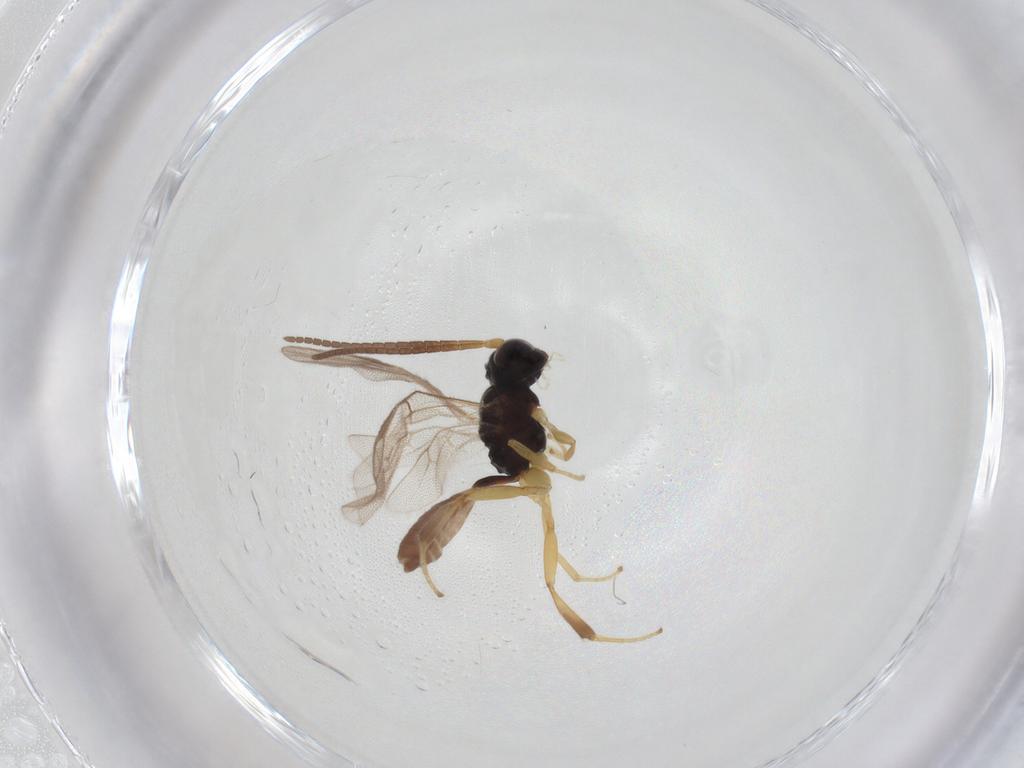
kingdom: Animalia
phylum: Arthropoda
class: Insecta
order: Hymenoptera
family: Ichneumonidae
